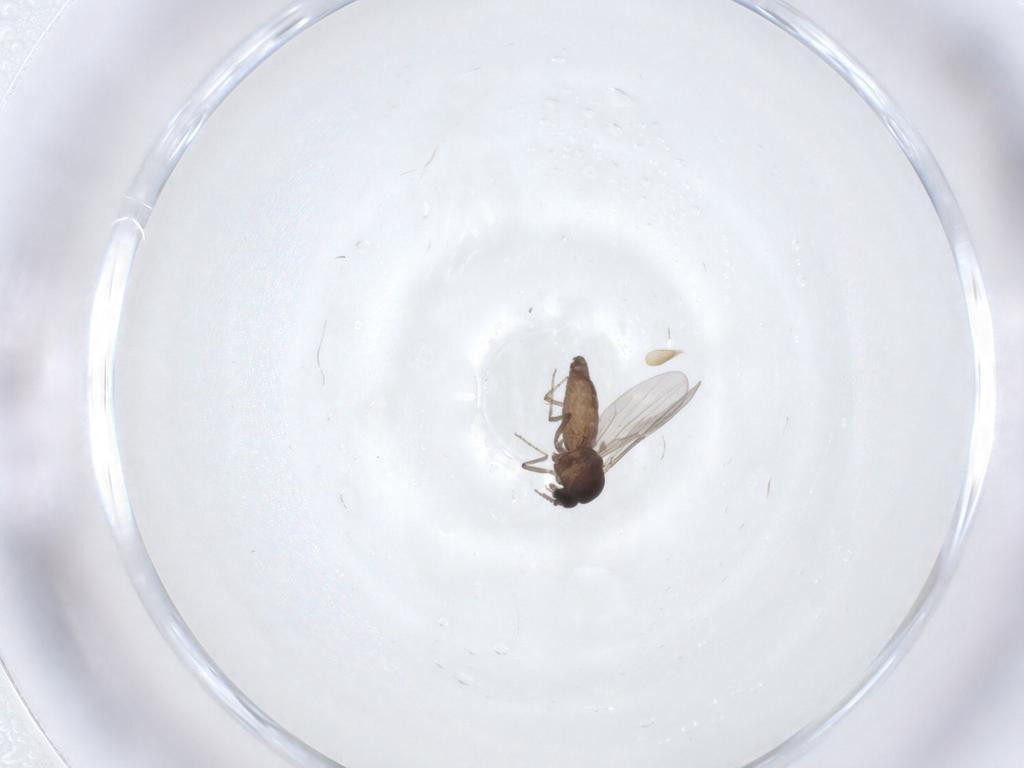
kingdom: Animalia
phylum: Arthropoda
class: Insecta
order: Diptera
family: Ceratopogonidae
